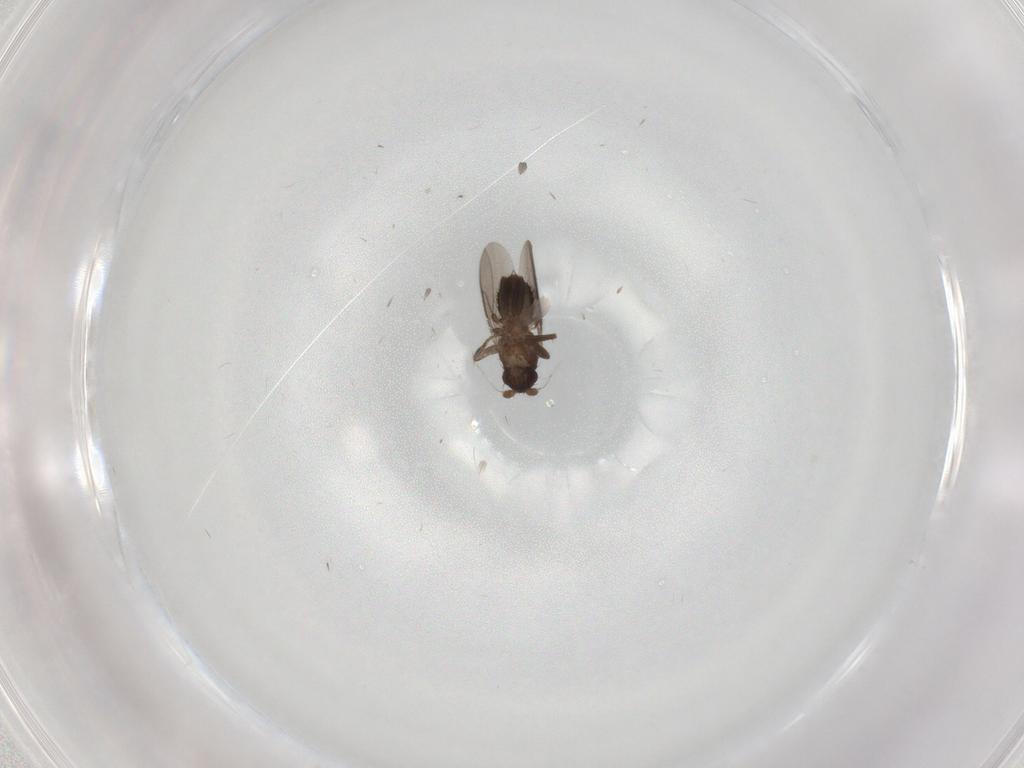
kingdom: Animalia
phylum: Arthropoda
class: Insecta
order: Diptera
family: Sphaeroceridae
